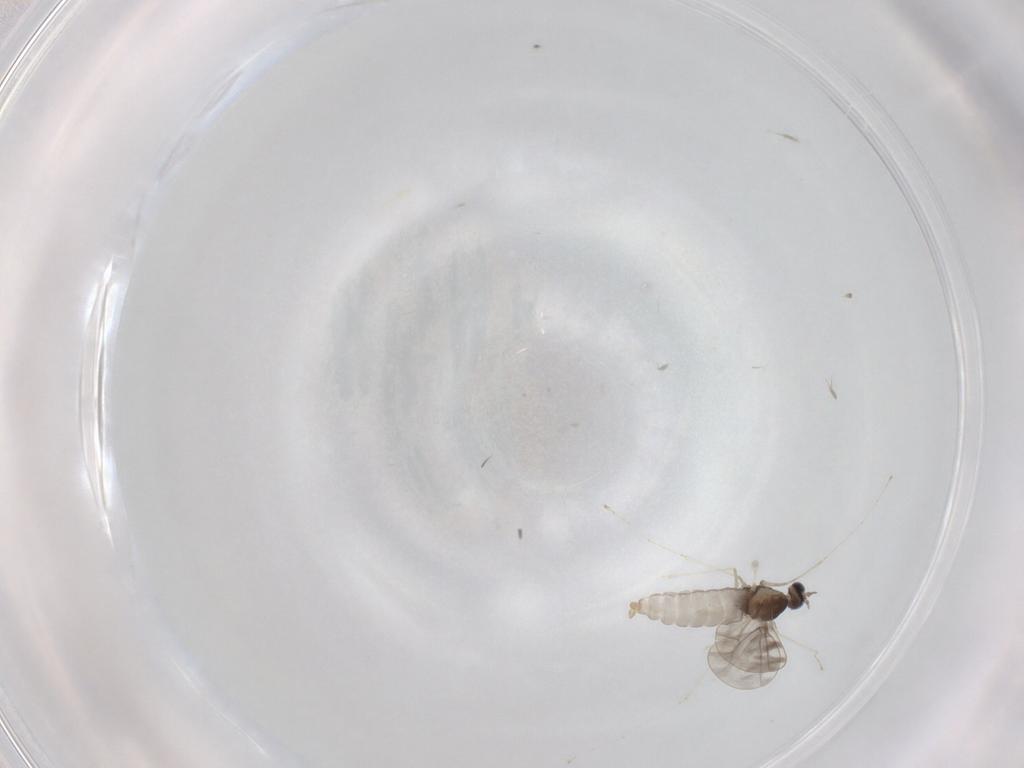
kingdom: Animalia
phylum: Arthropoda
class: Insecta
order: Diptera
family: Cecidomyiidae
